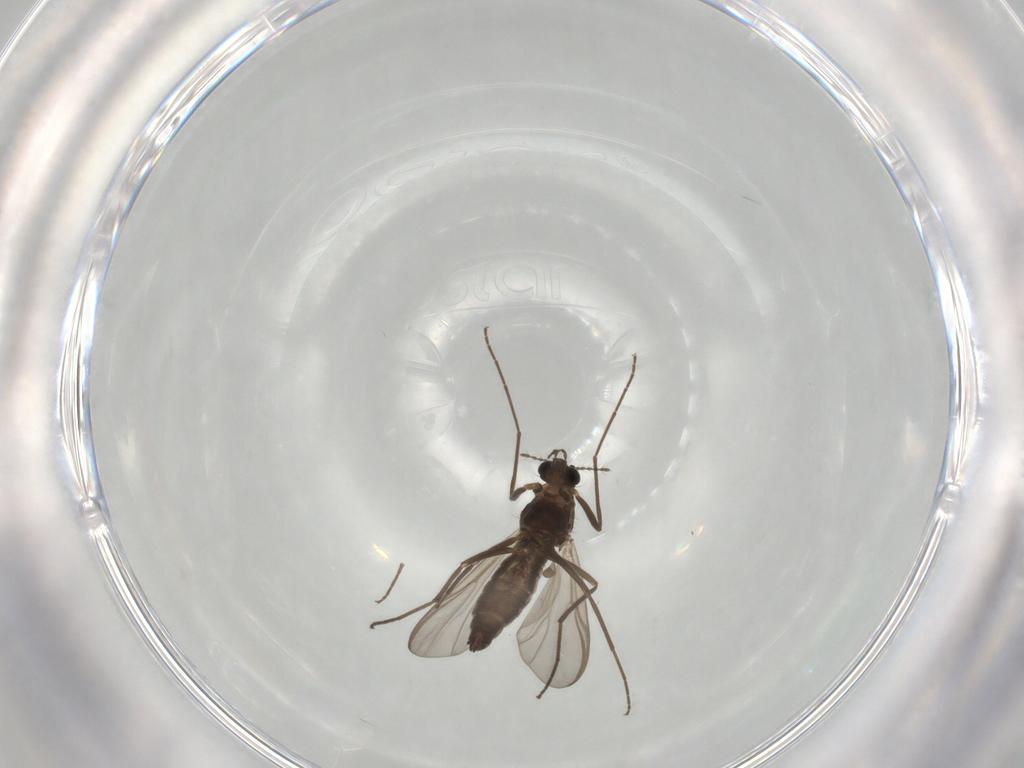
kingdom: Animalia
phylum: Arthropoda
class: Insecta
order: Diptera
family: Chironomidae
